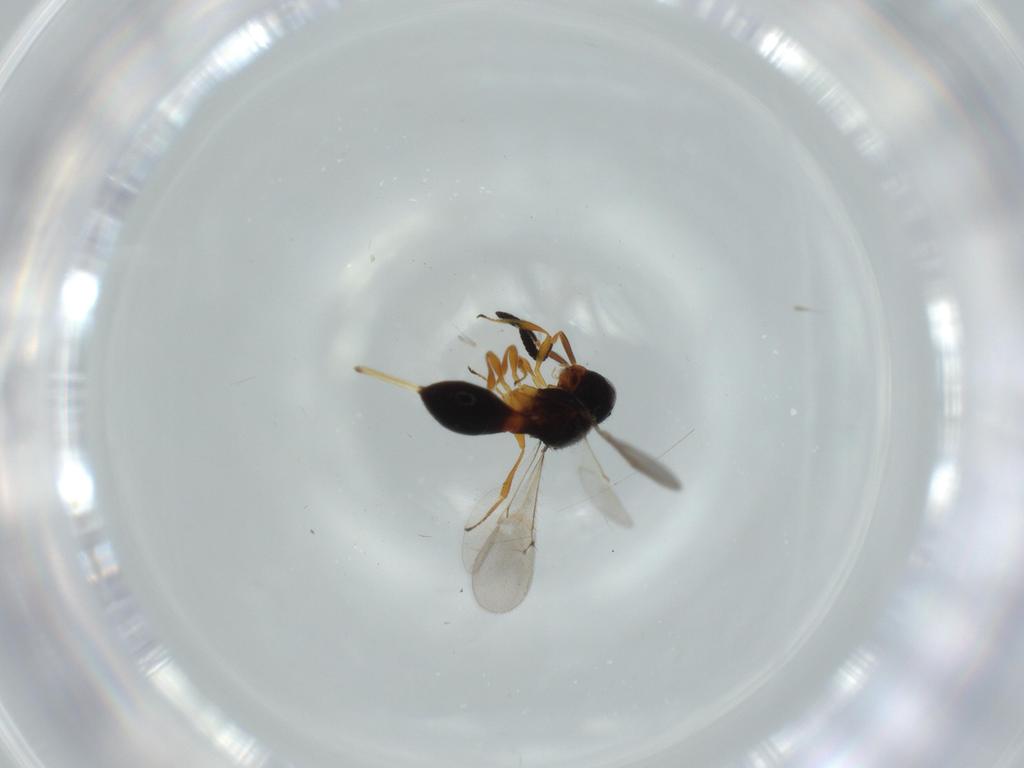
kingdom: Animalia
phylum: Arthropoda
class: Insecta
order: Hymenoptera
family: Scelionidae
